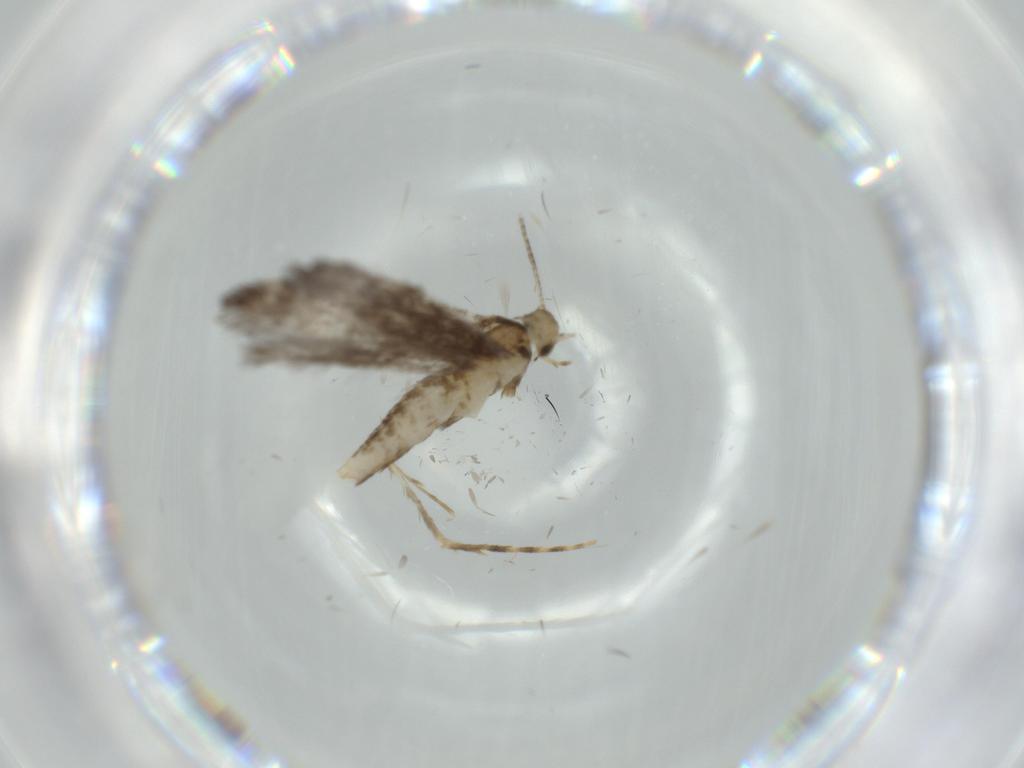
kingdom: Animalia
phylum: Arthropoda
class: Insecta
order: Lepidoptera
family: Gracillariidae
